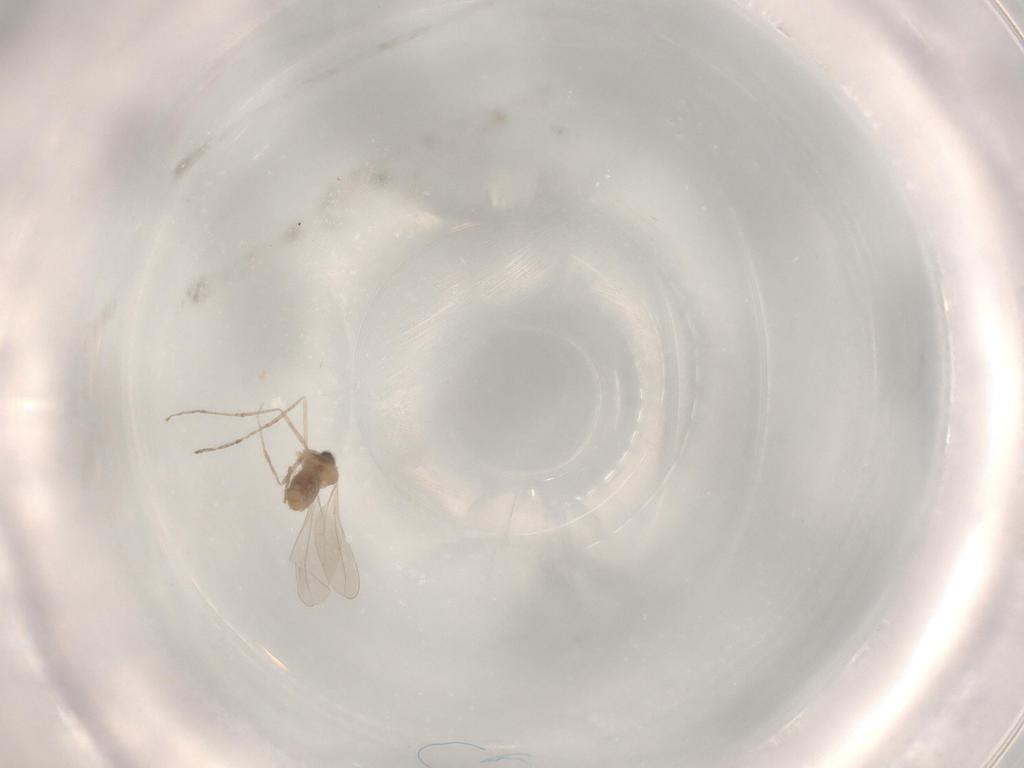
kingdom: Animalia
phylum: Arthropoda
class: Insecta
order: Diptera
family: Ceratopogonidae
